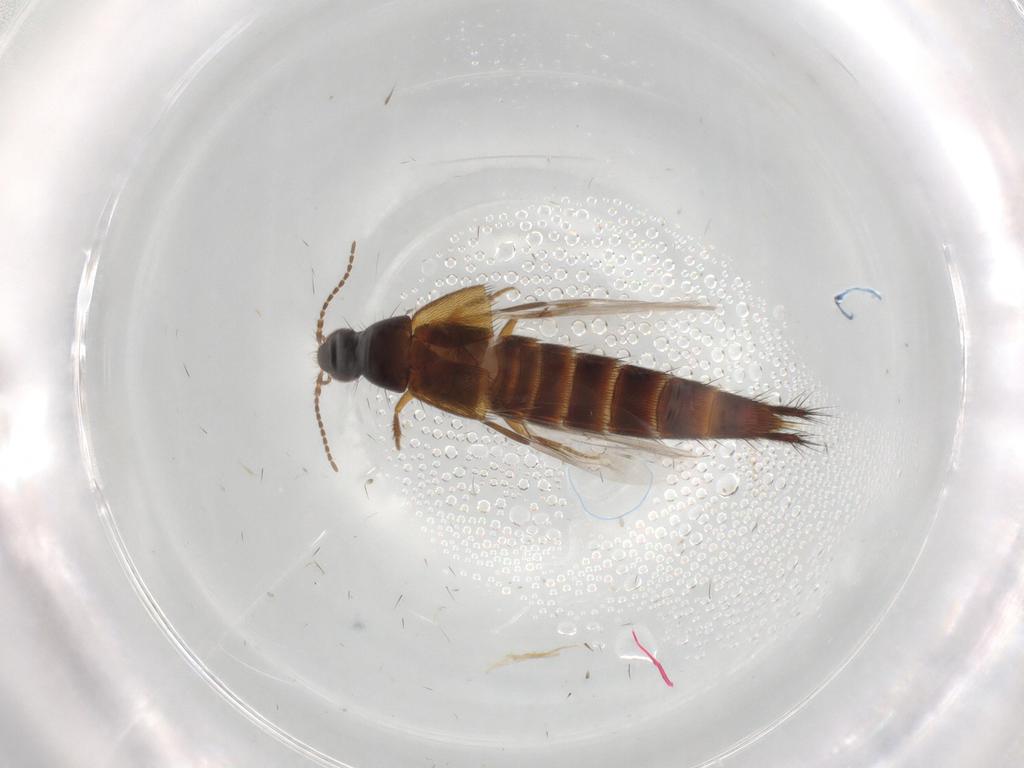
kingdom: Animalia
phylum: Arthropoda
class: Insecta
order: Coleoptera
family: Staphylinidae
